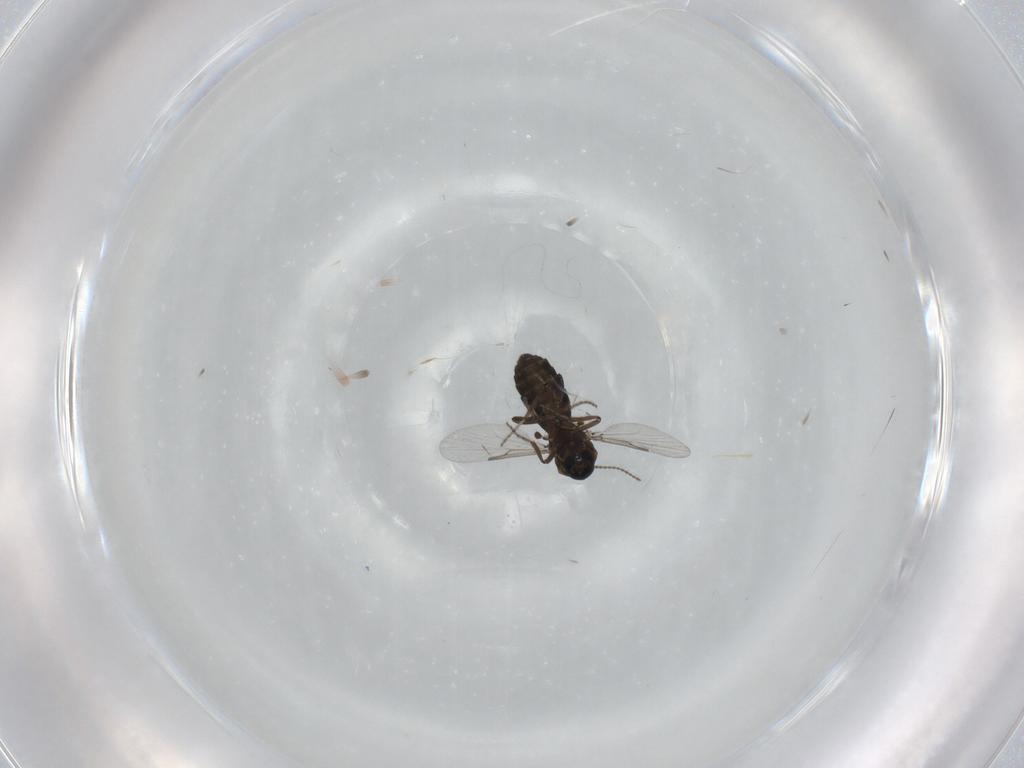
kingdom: Animalia
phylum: Arthropoda
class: Insecta
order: Diptera
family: Ceratopogonidae
